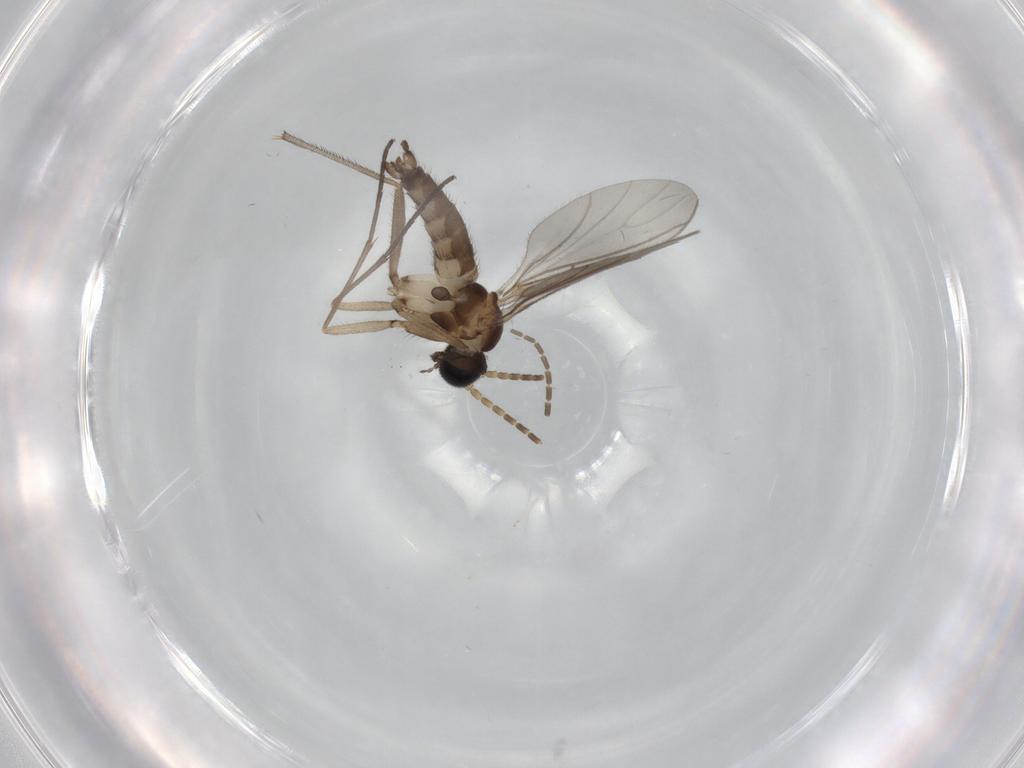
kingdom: Animalia
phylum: Arthropoda
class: Insecta
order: Diptera
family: Sciaridae
